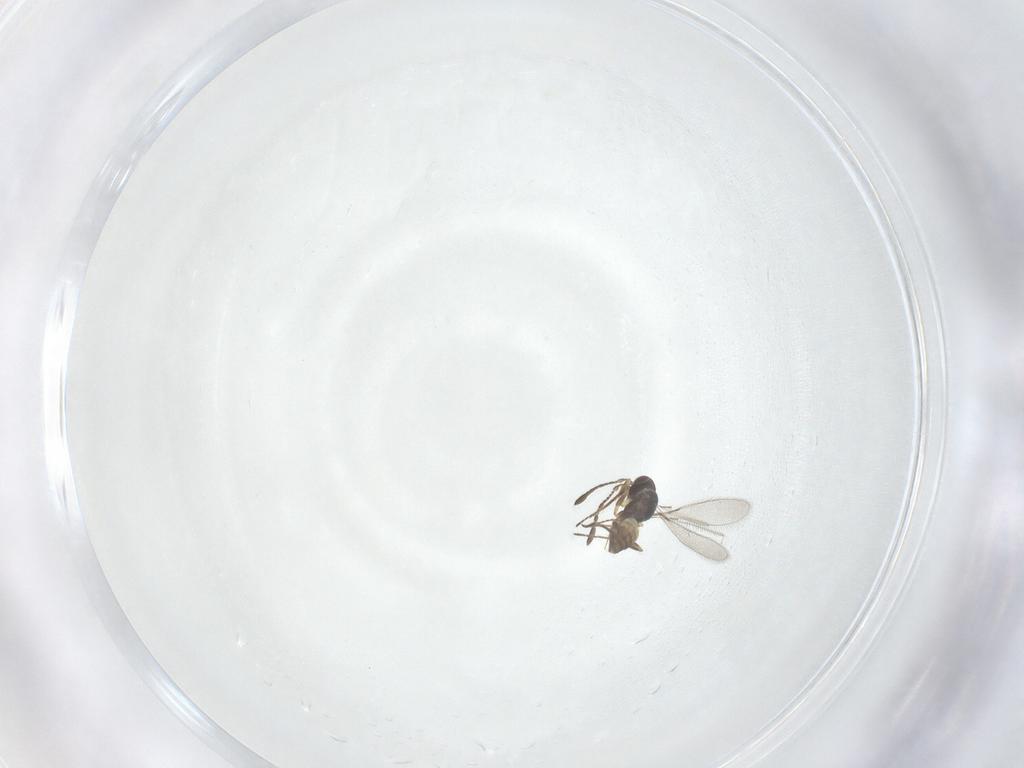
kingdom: Animalia
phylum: Arthropoda
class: Insecta
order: Hymenoptera
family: Mymaridae
